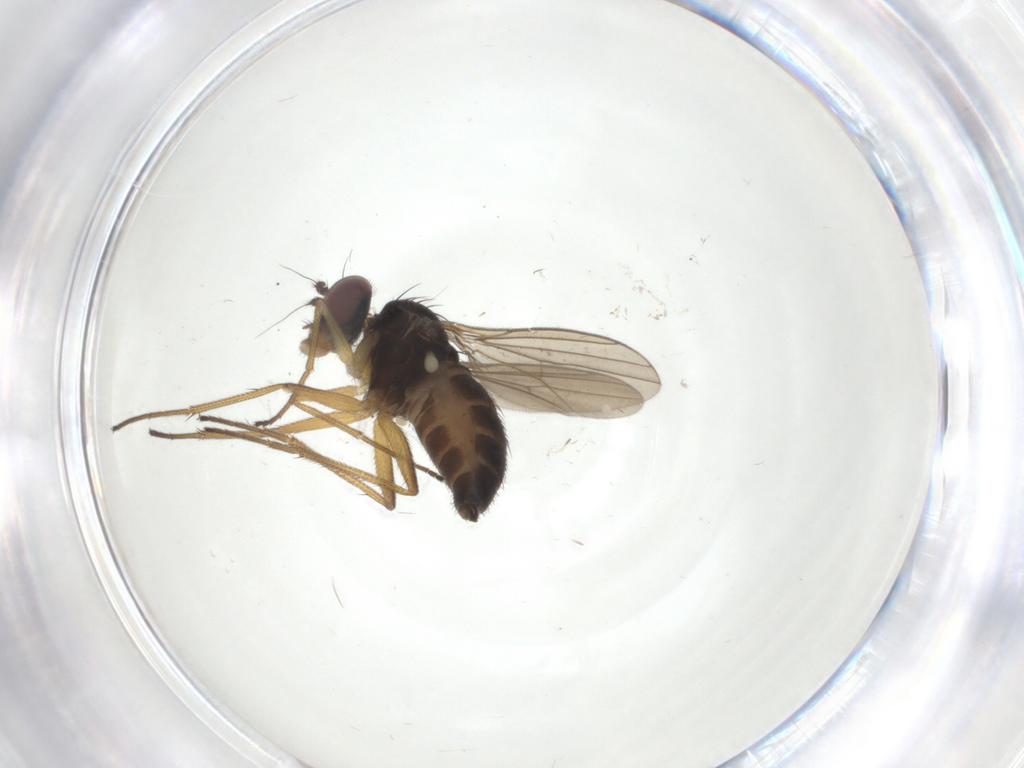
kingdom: Animalia
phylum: Arthropoda
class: Insecta
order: Diptera
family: Dolichopodidae
